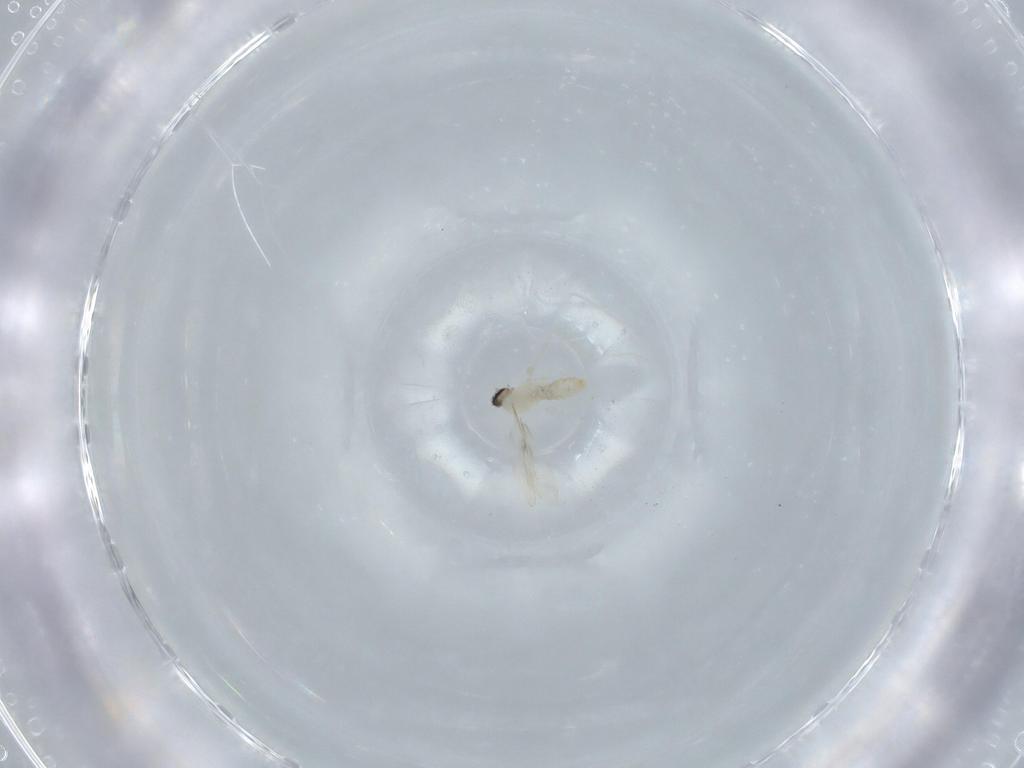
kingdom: Animalia
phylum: Arthropoda
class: Insecta
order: Diptera
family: Cecidomyiidae
